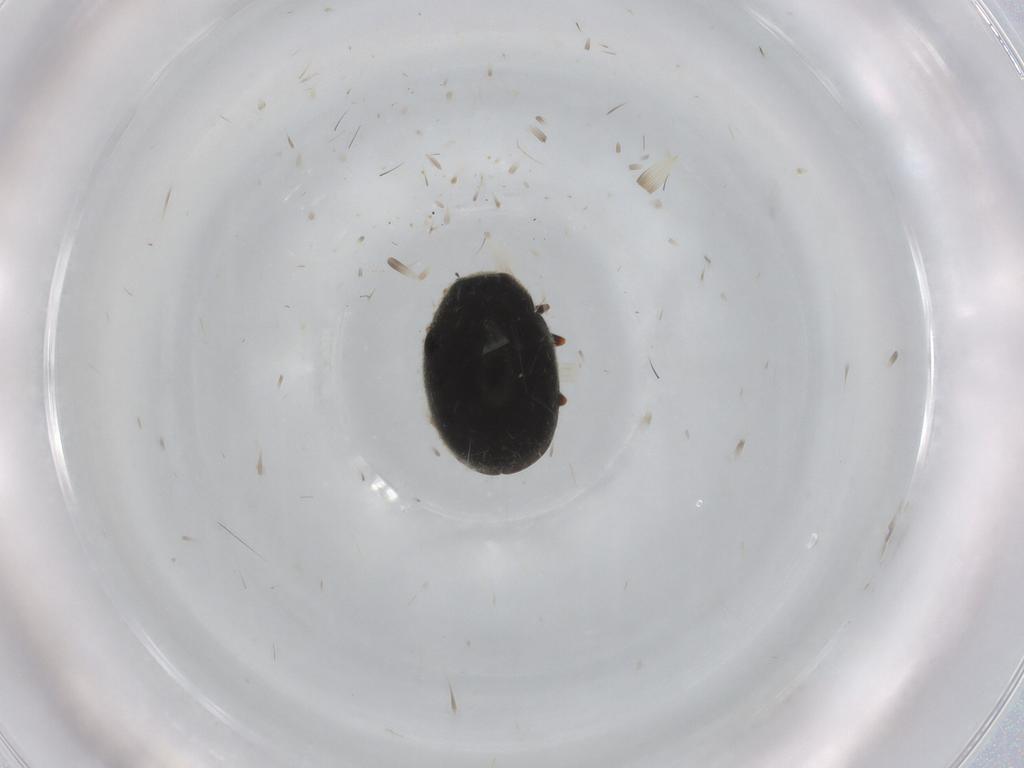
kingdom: Animalia
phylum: Arthropoda
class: Insecta
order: Coleoptera
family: Coccinellidae
